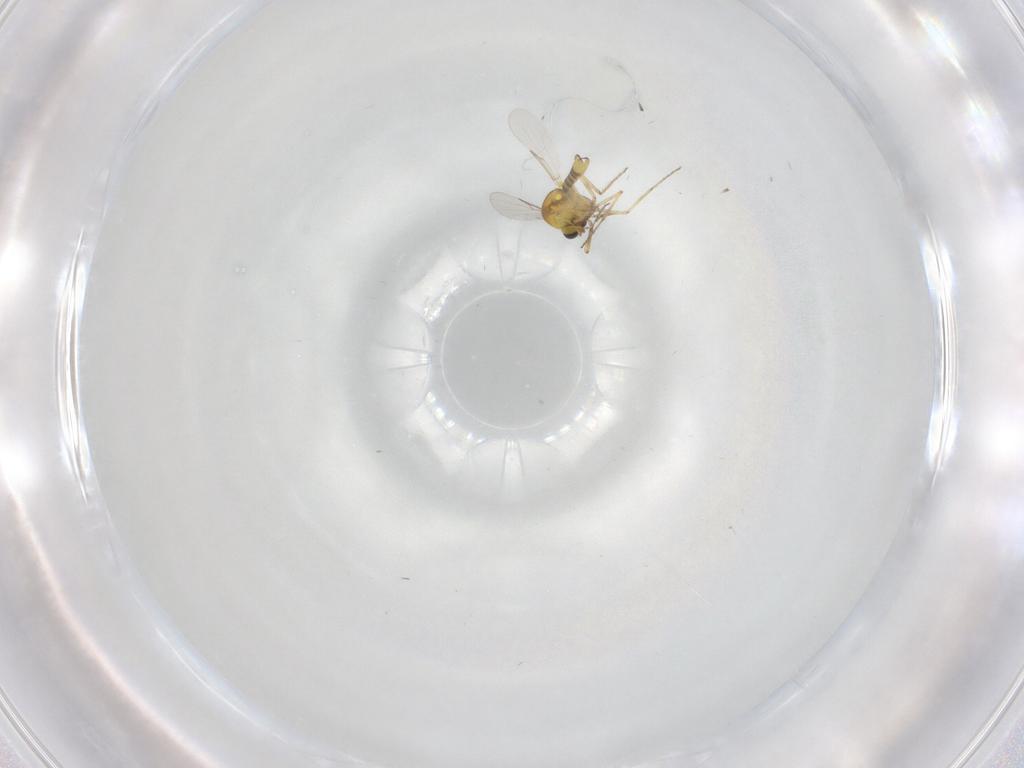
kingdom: Animalia
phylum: Arthropoda
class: Insecta
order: Diptera
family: Ceratopogonidae
